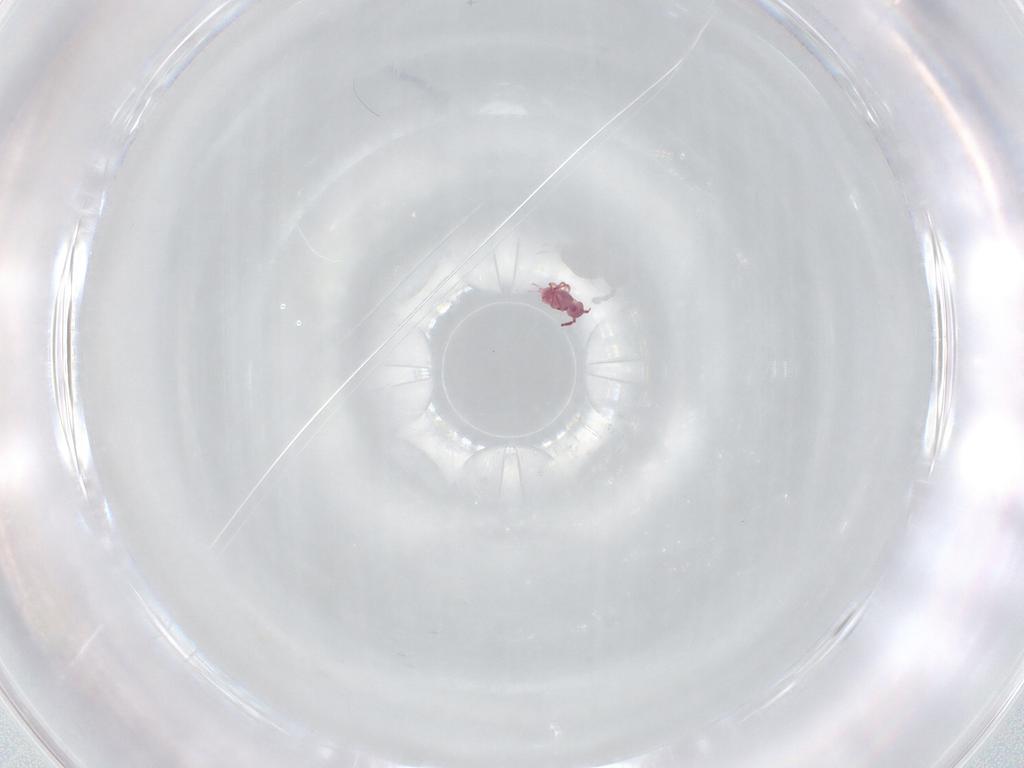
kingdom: Animalia
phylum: Arthropoda
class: Collembola
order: Symphypleona
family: Sminthurididae
